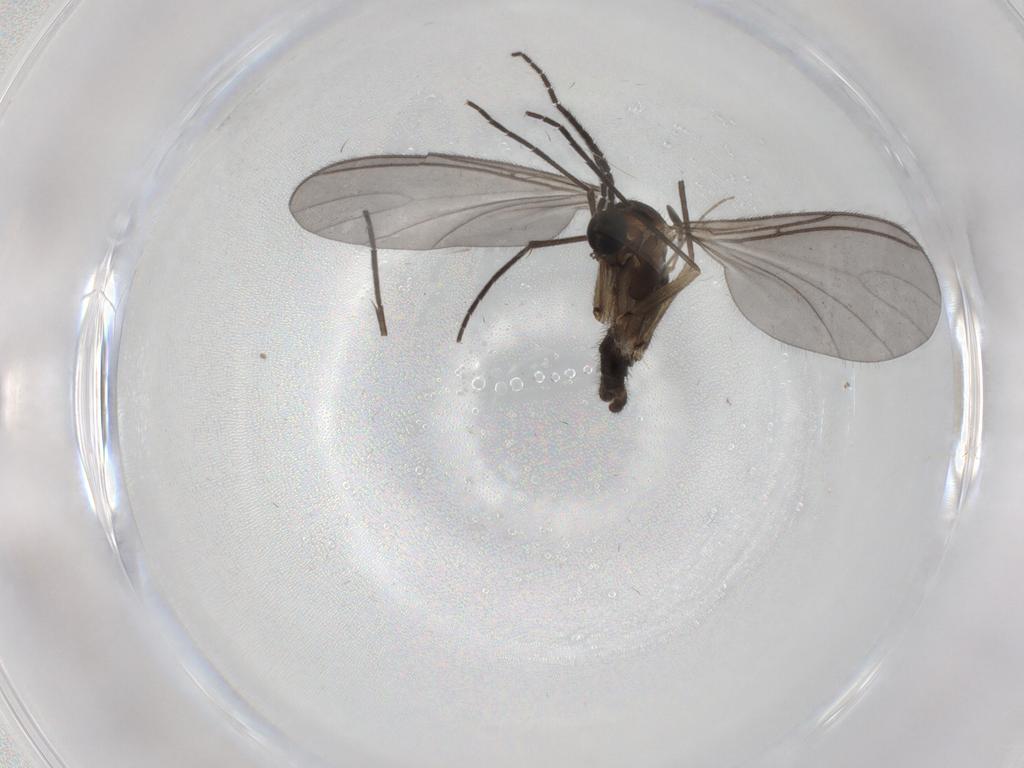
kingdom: Animalia
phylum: Arthropoda
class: Insecta
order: Diptera
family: Sciaridae
